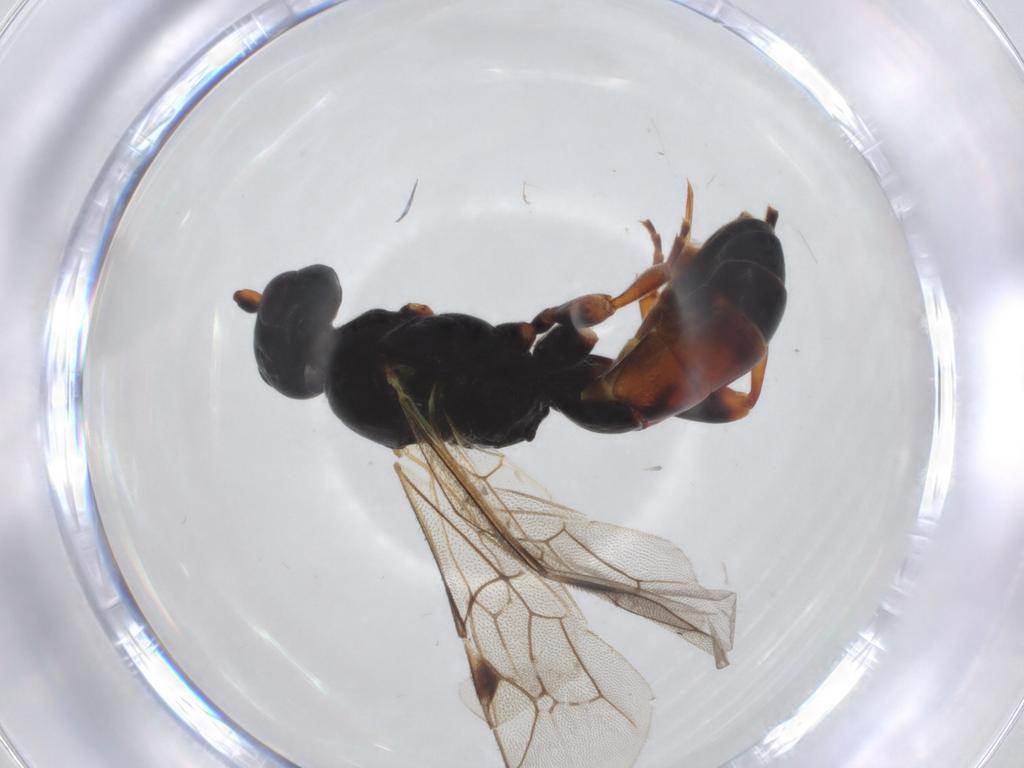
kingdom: Animalia
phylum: Arthropoda
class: Insecta
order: Hymenoptera
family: Ichneumonidae
